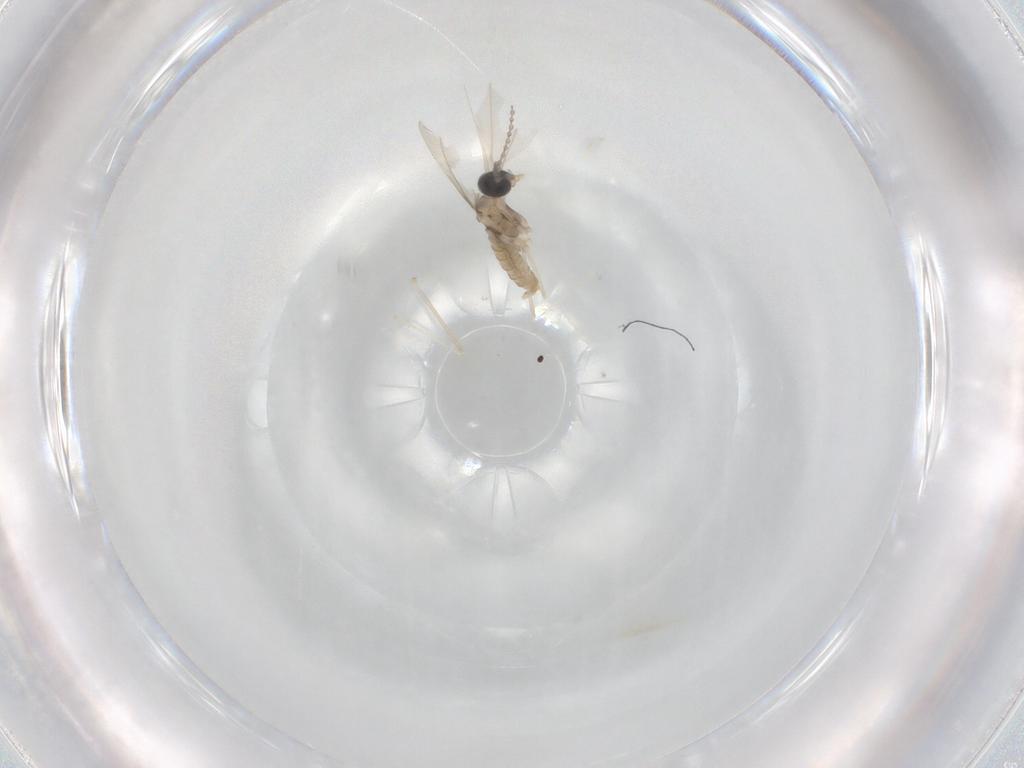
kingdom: Animalia
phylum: Arthropoda
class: Insecta
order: Diptera
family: Cecidomyiidae
